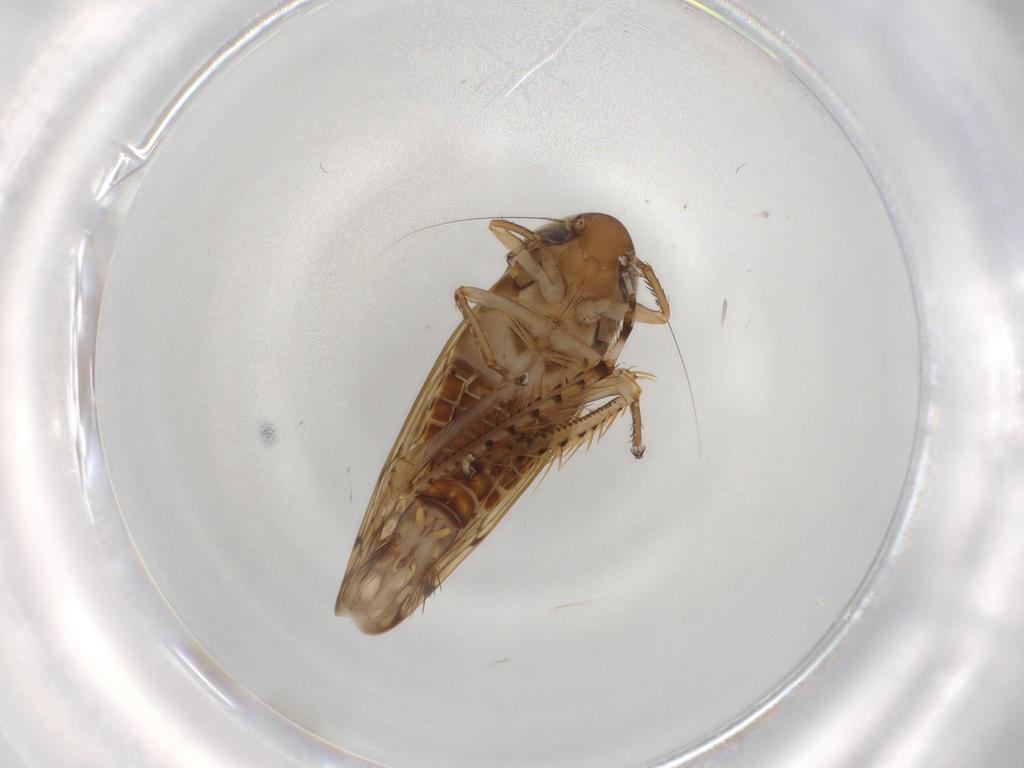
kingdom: Animalia
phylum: Arthropoda
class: Insecta
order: Hemiptera
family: Cicadellidae
